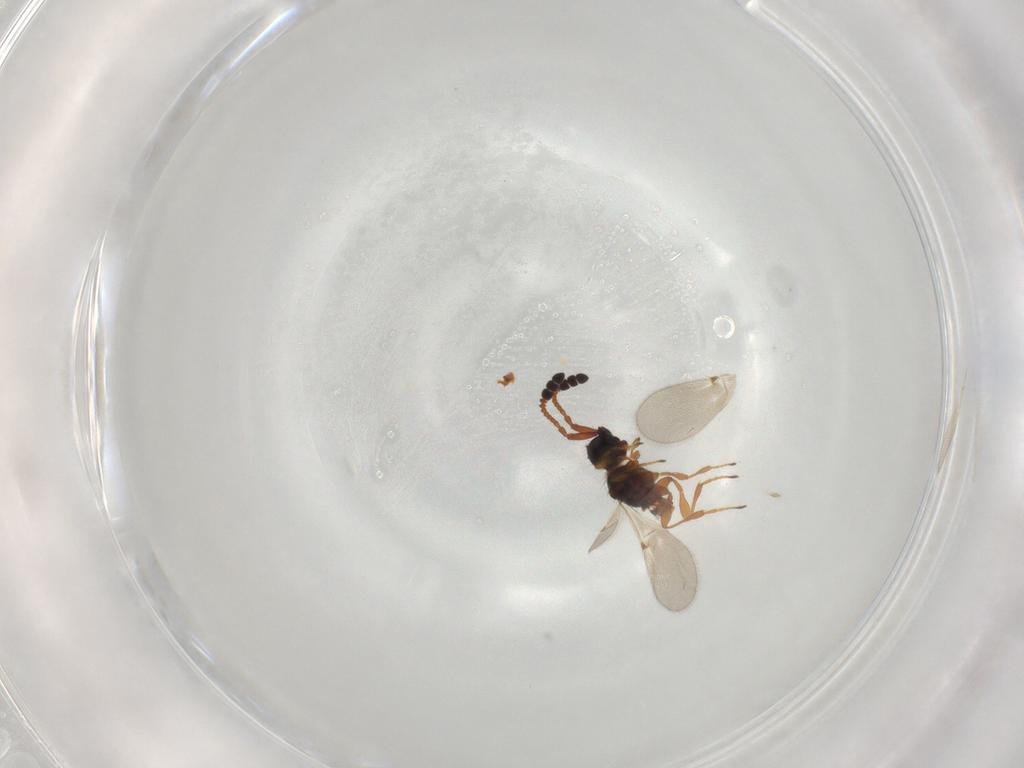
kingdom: Animalia
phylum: Arthropoda
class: Insecta
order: Hymenoptera
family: Diapriidae
